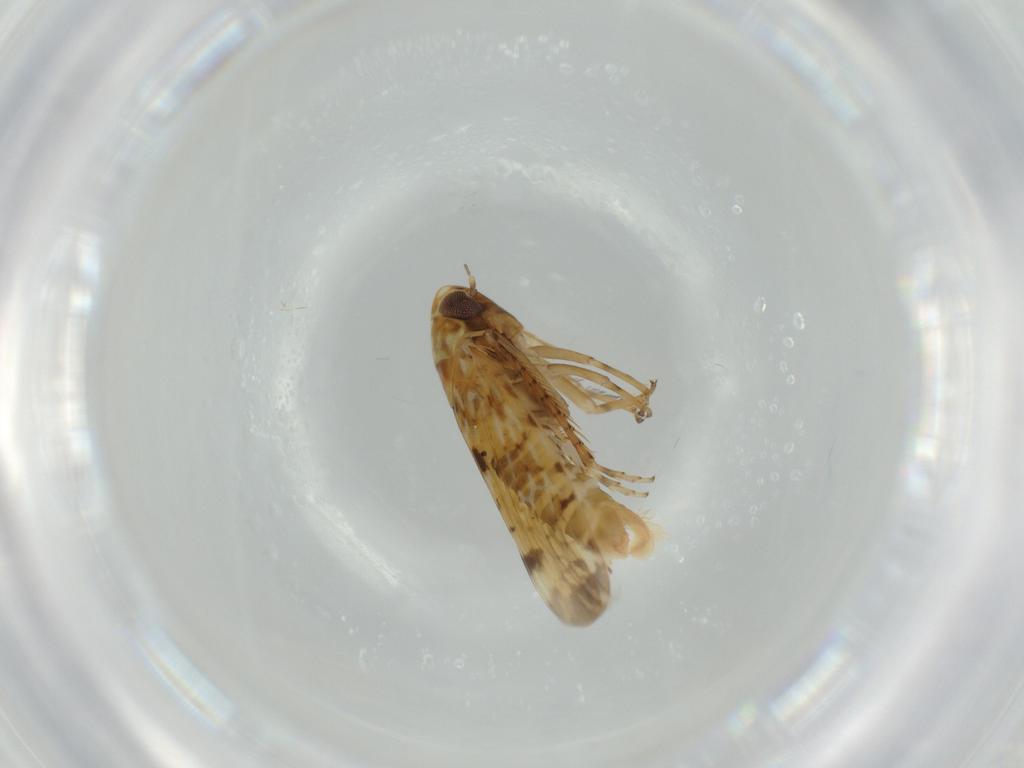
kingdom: Animalia
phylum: Arthropoda
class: Insecta
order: Hemiptera
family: Cicadellidae
